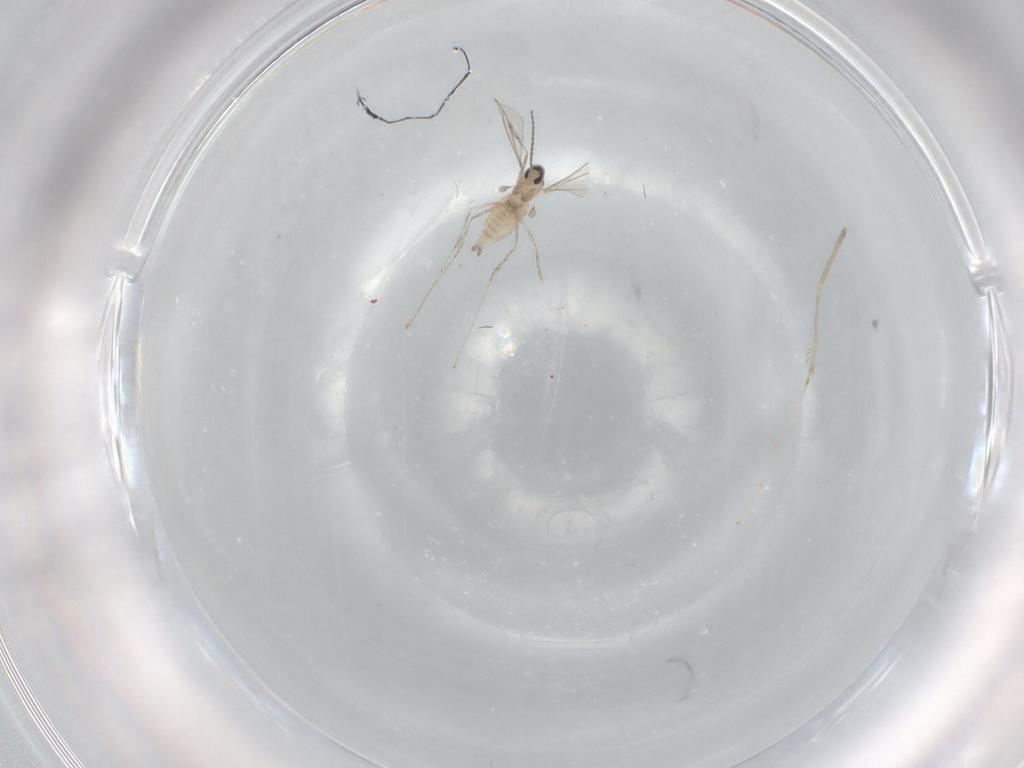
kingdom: Animalia
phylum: Arthropoda
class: Insecta
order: Diptera
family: Cecidomyiidae
